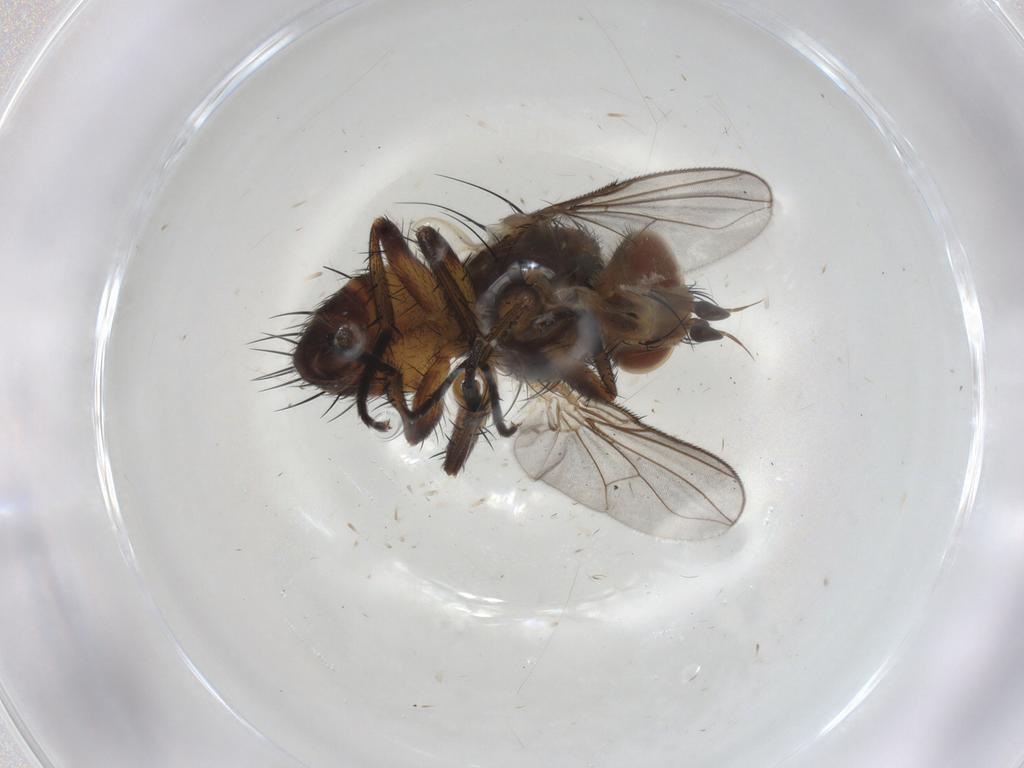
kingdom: Animalia
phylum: Arthropoda
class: Insecta
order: Diptera
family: Tachinidae
